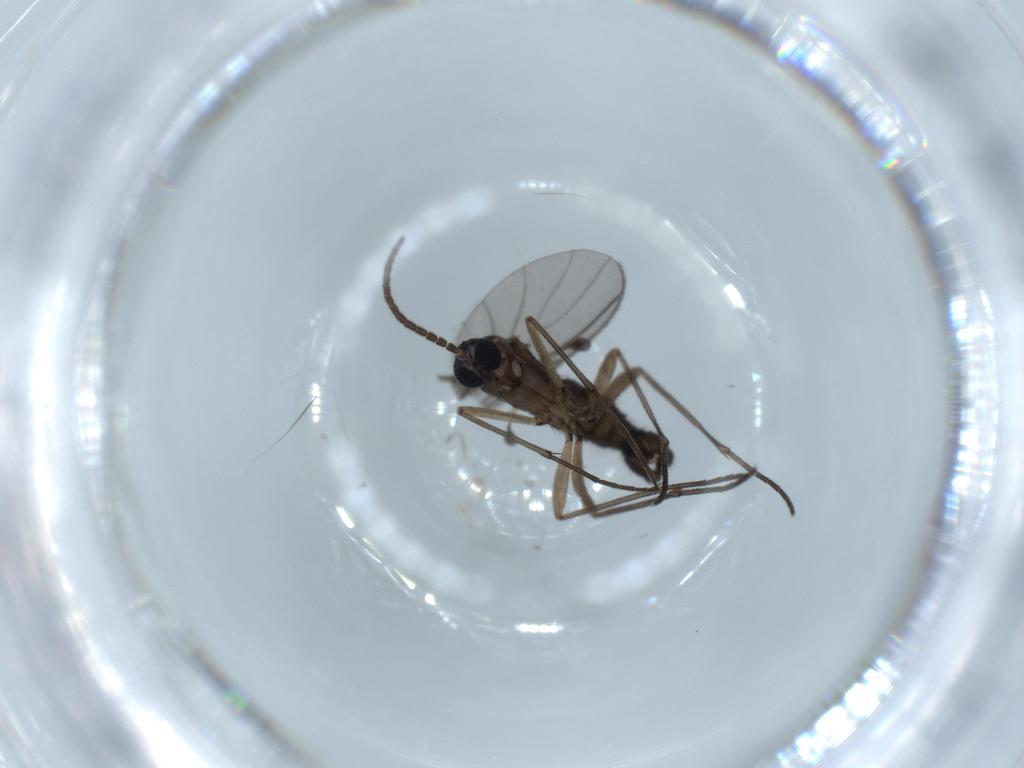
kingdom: Animalia
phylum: Arthropoda
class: Insecta
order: Diptera
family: Sciaridae
